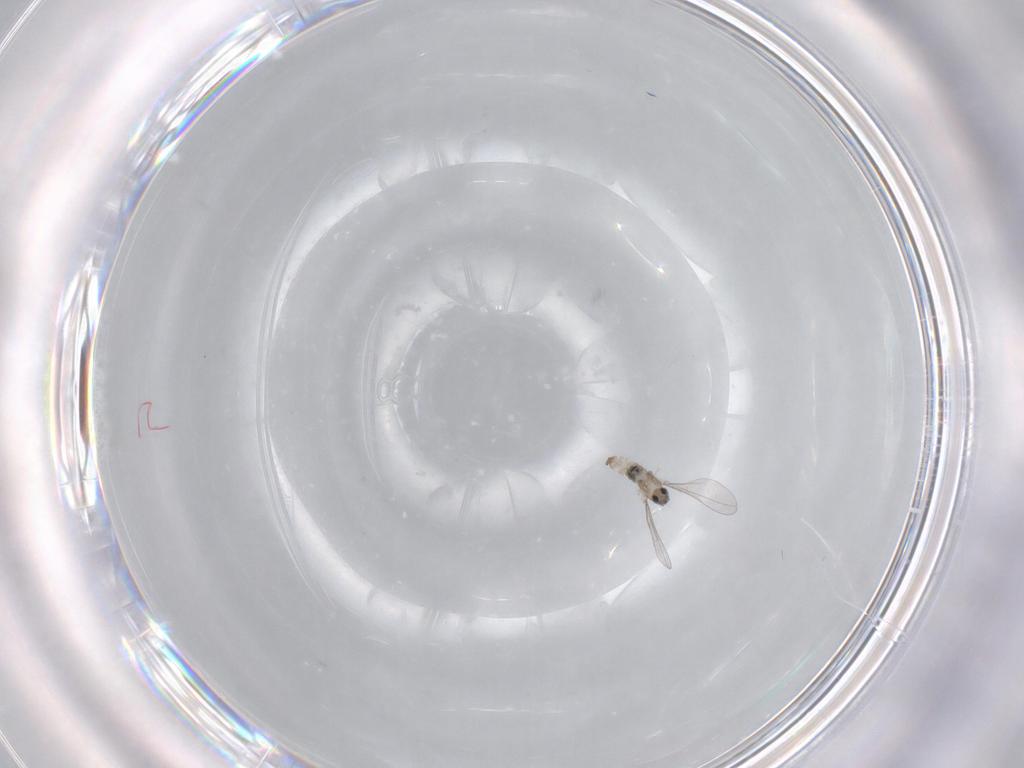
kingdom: Animalia
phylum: Arthropoda
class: Insecta
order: Diptera
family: Cecidomyiidae
